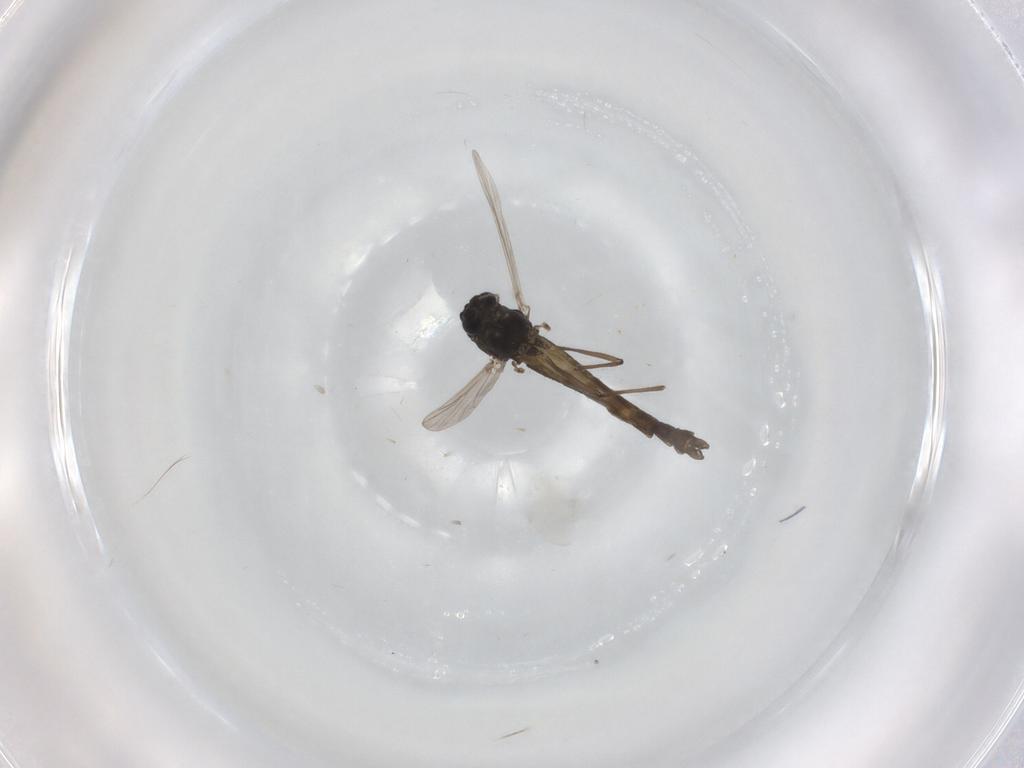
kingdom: Animalia
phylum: Arthropoda
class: Insecta
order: Diptera
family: Chironomidae
